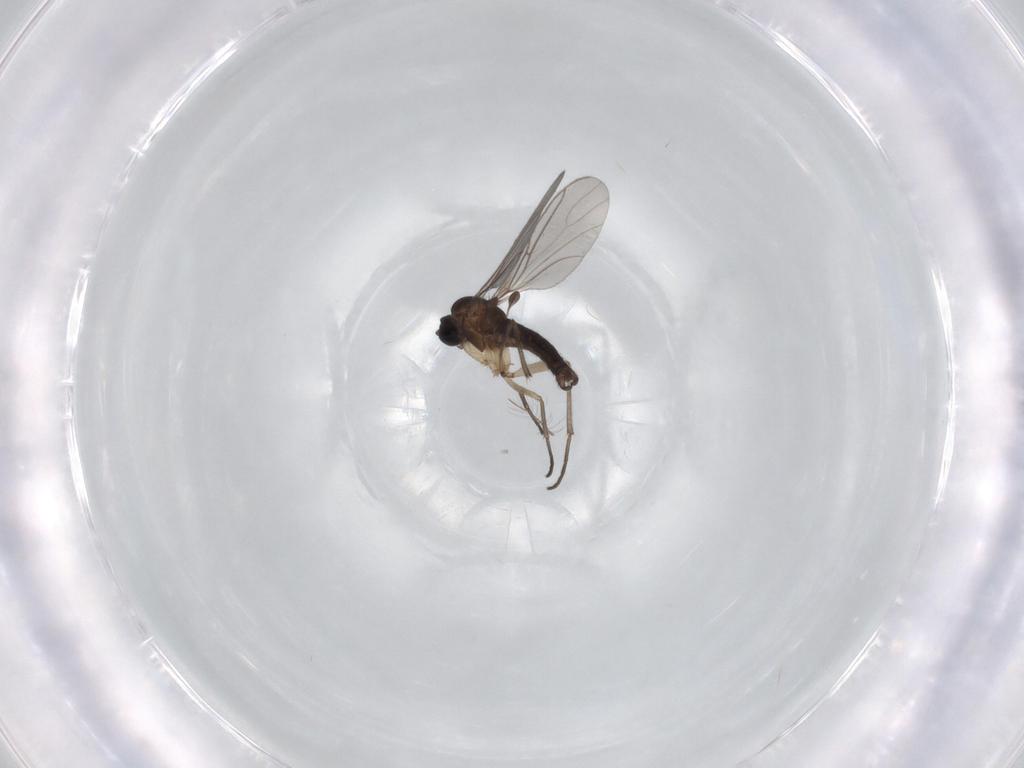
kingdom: Animalia
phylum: Arthropoda
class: Insecta
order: Diptera
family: Sciaridae
